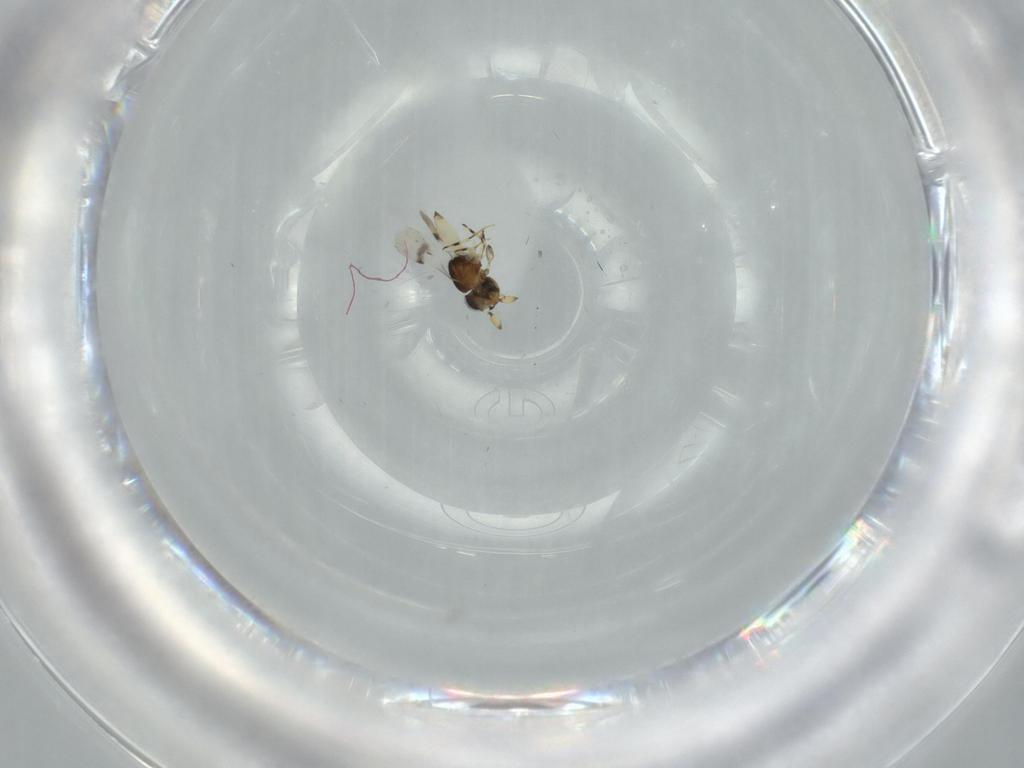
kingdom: Animalia
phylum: Arthropoda
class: Insecta
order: Hymenoptera
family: Scelionidae
